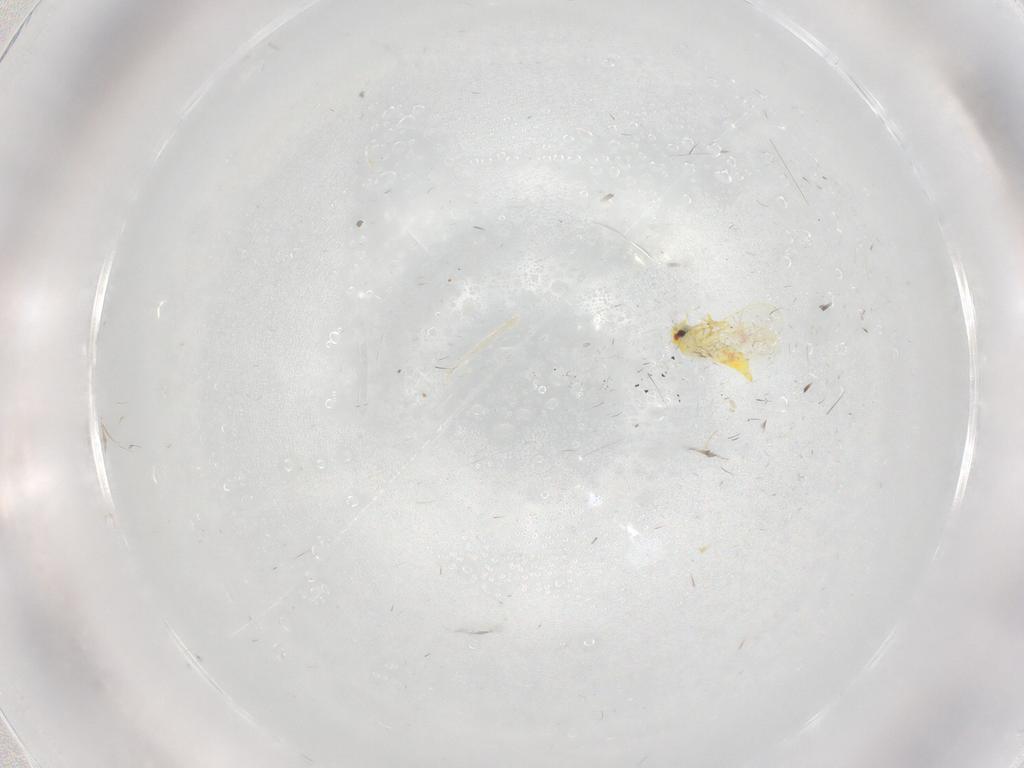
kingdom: Animalia
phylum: Arthropoda
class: Insecta
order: Hemiptera
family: Aleyrodidae
